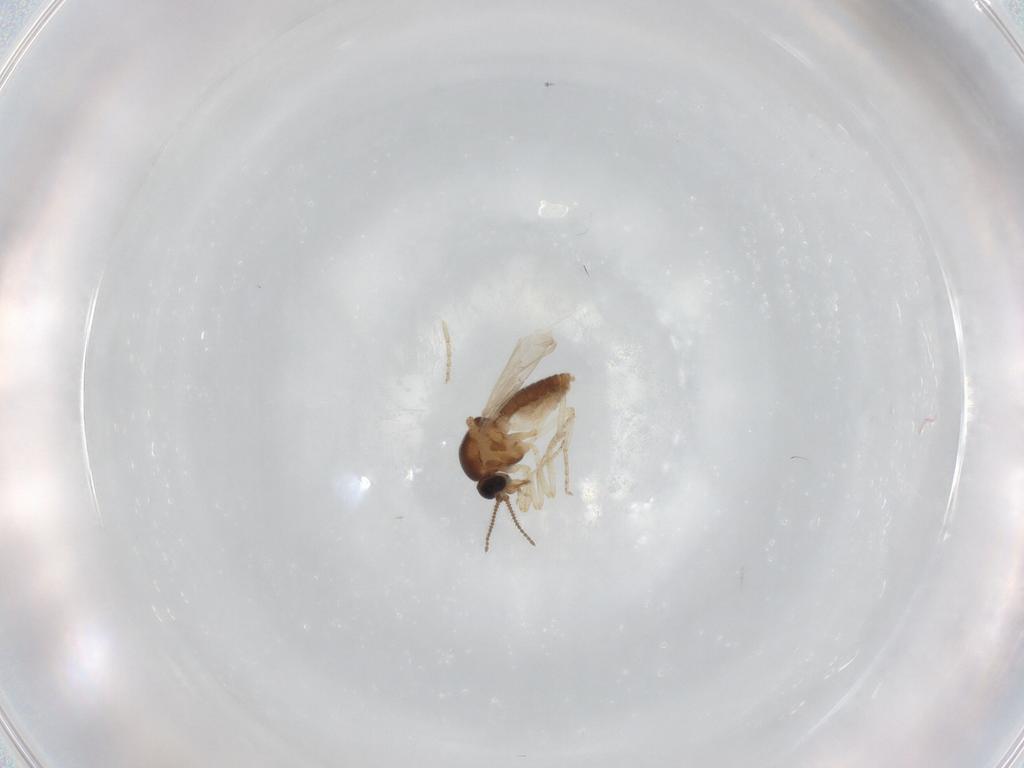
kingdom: Animalia
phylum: Arthropoda
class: Insecta
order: Diptera
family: Ceratopogonidae
